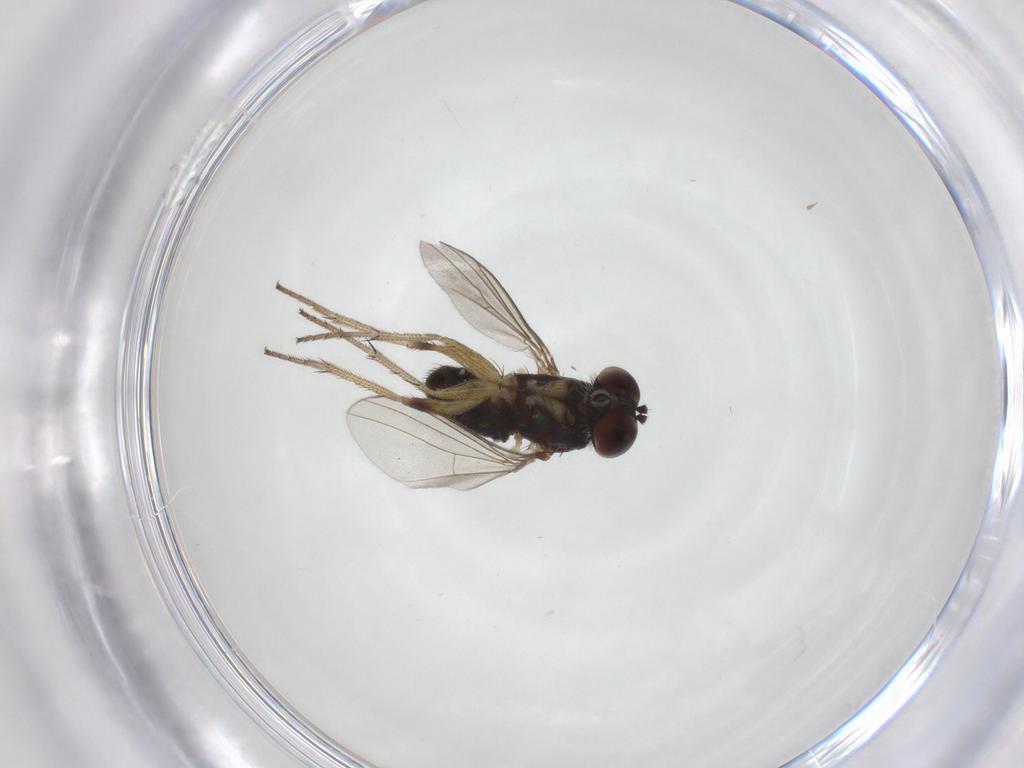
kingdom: Animalia
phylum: Arthropoda
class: Insecta
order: Diptera
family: Dolichopodidae
